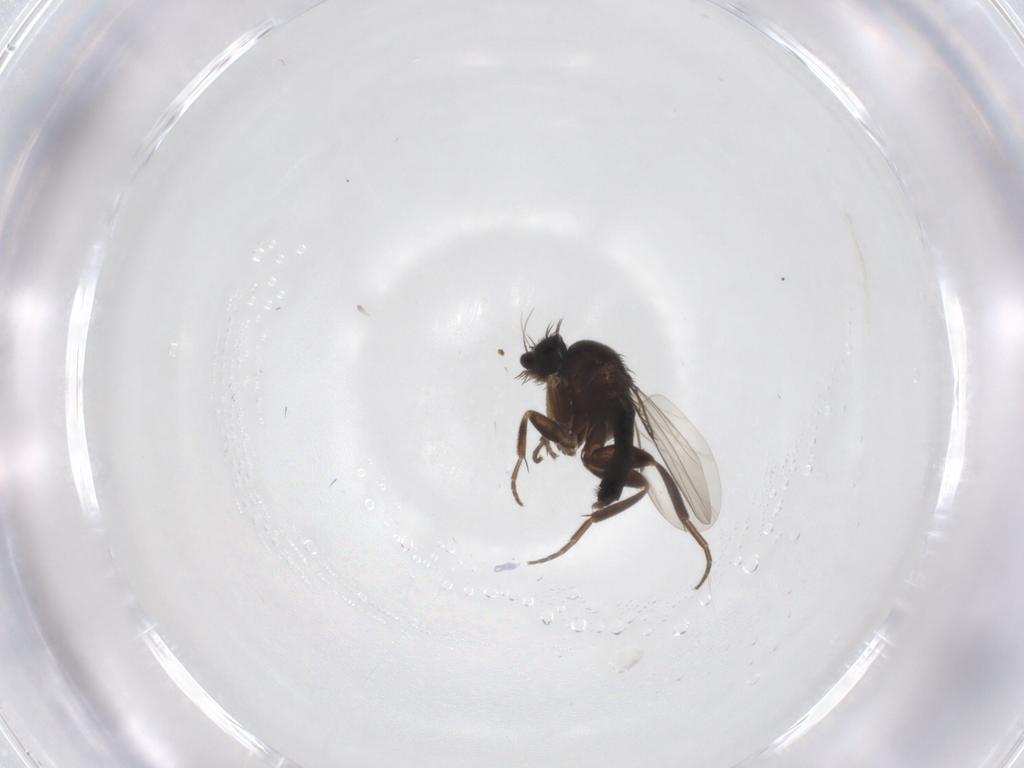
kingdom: Animalia
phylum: Arthropoda
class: Insecta
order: Diptera
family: Phoridae
